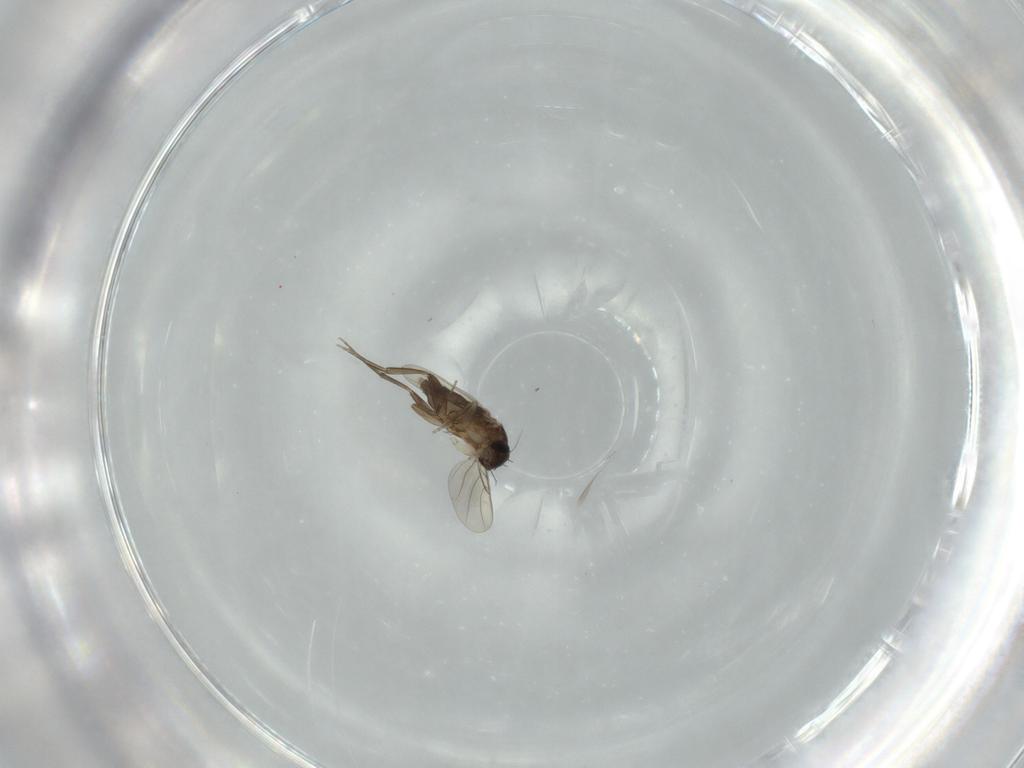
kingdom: Animalia
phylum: Arthropoda
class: Insecta
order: Diptera
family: Phoridae
